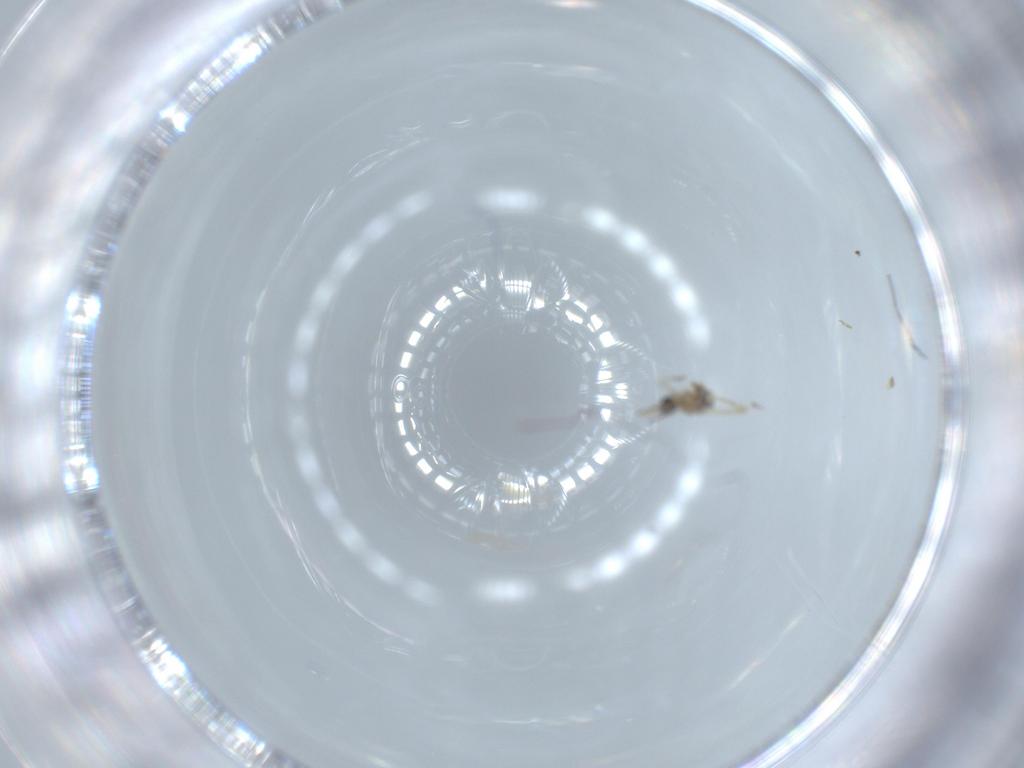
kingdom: Animalia
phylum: Arthropoda
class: Insecta
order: Diptera
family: Cecidomyiidae
